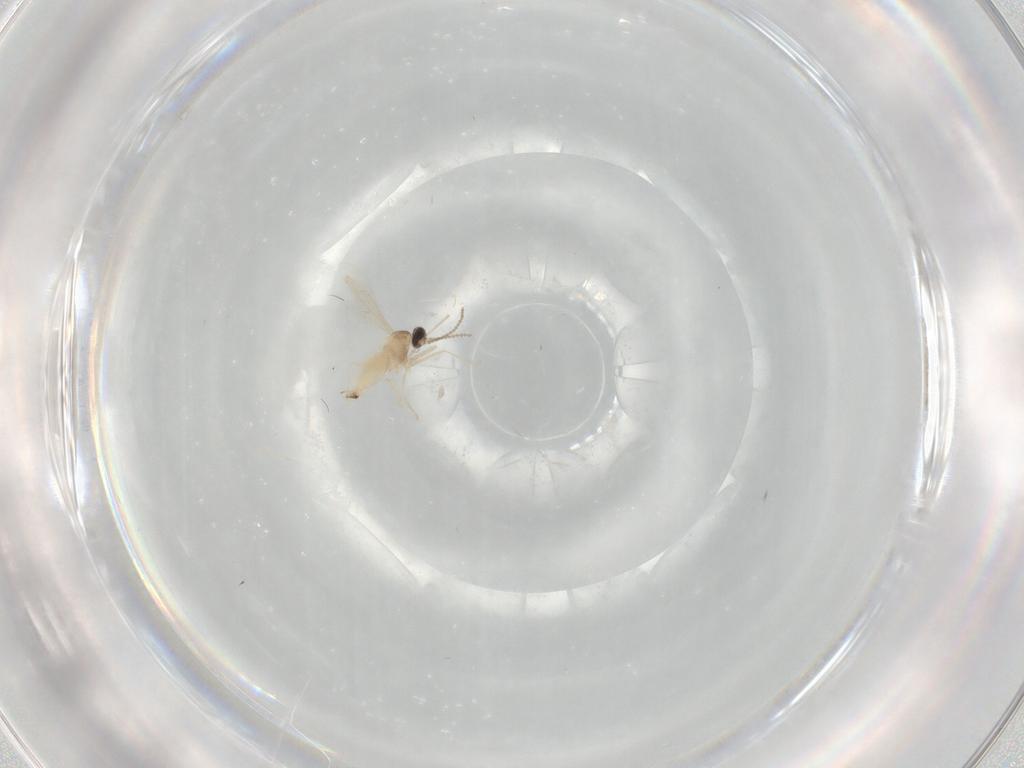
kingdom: Animalia
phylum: Arthropoda
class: Insecta
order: Diptera
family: Cecidomyiidae
